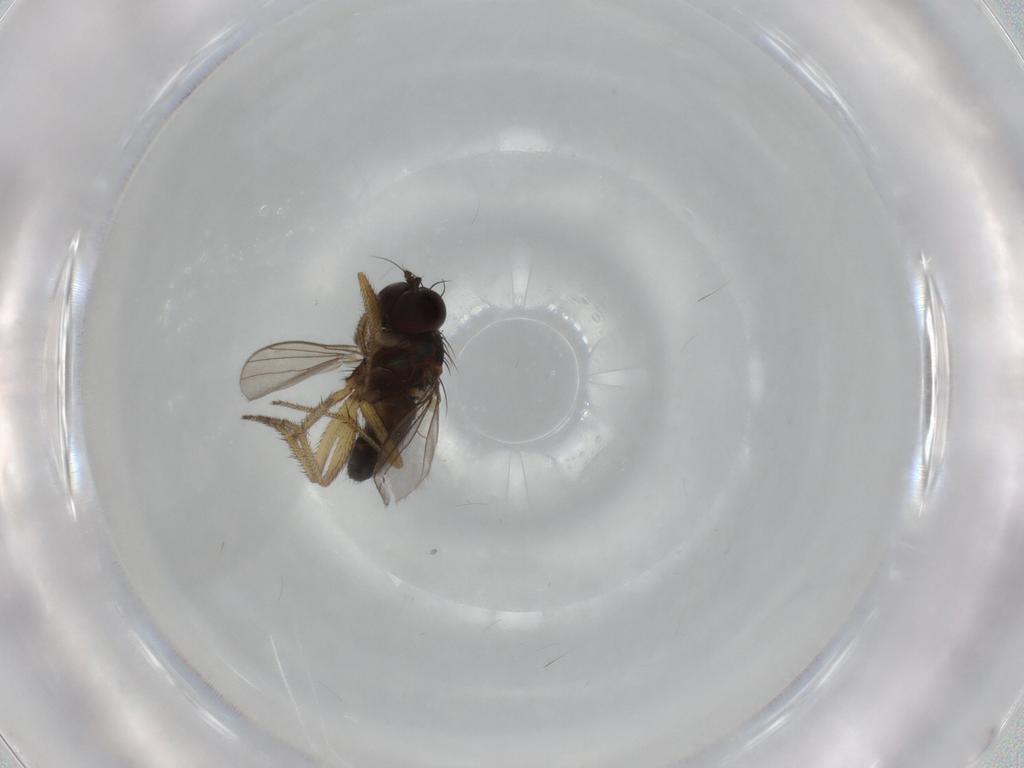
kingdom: Animalia
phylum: Arthropoda
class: Insecta
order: Diptera
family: Dolichopodidae
